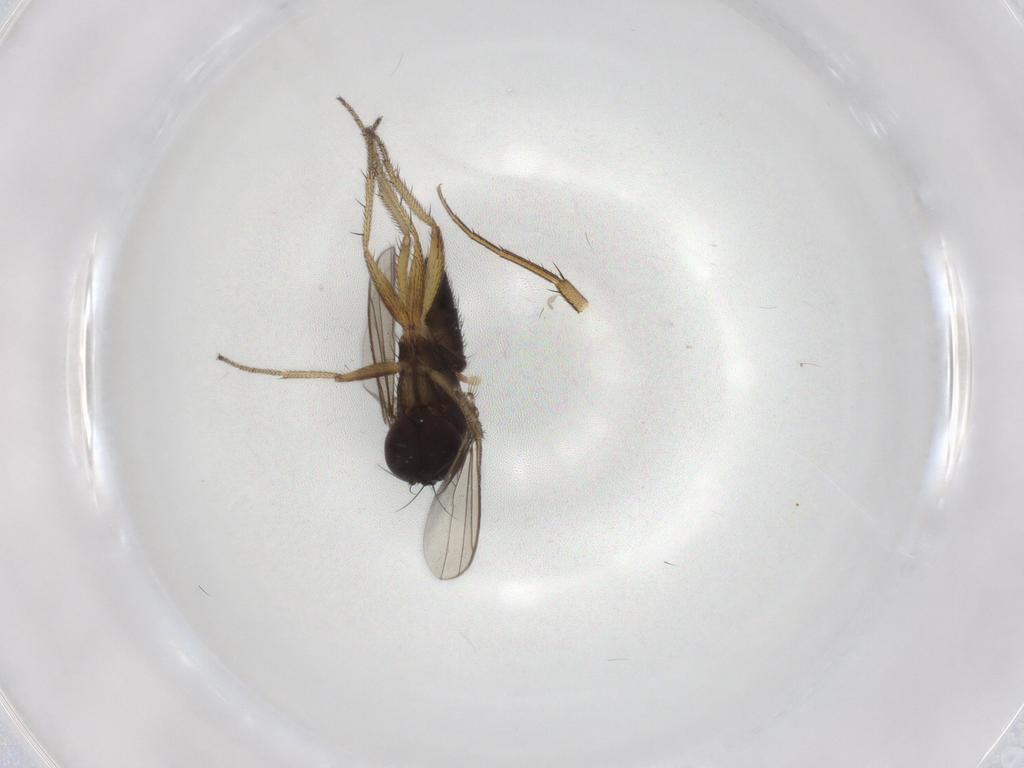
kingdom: Animalia
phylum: Arthropoda
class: Insecta
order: Diptera
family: Phoridae
